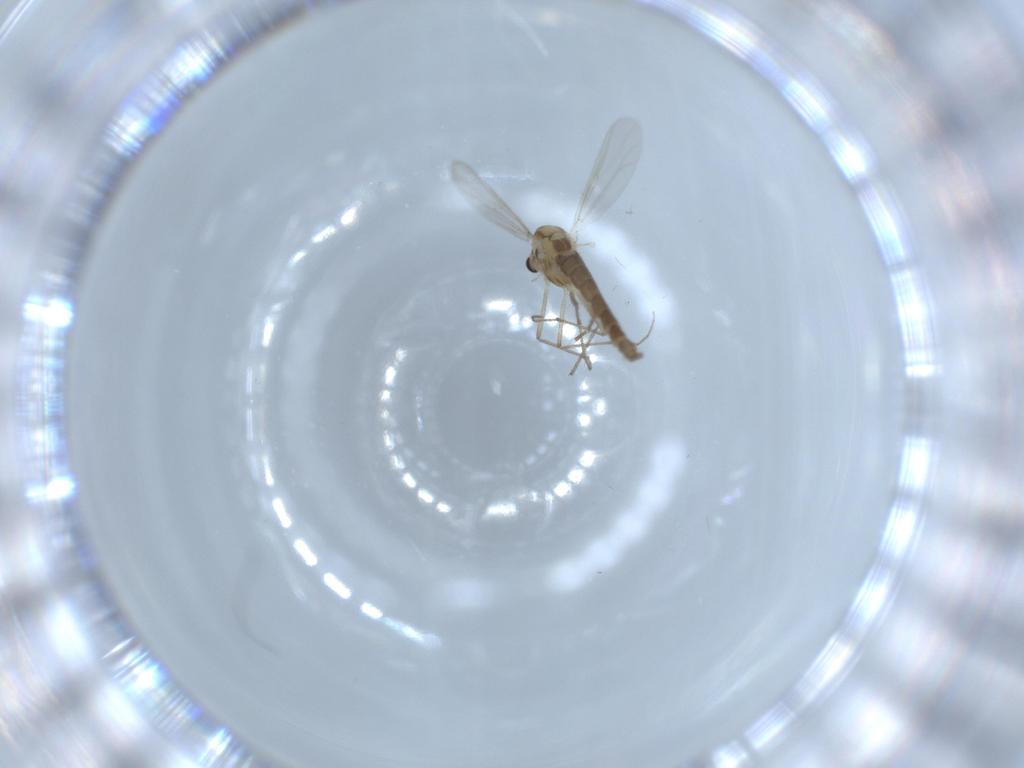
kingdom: Animalia
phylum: Arthropoda
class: Insecta
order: Diptera
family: Chironomidae
